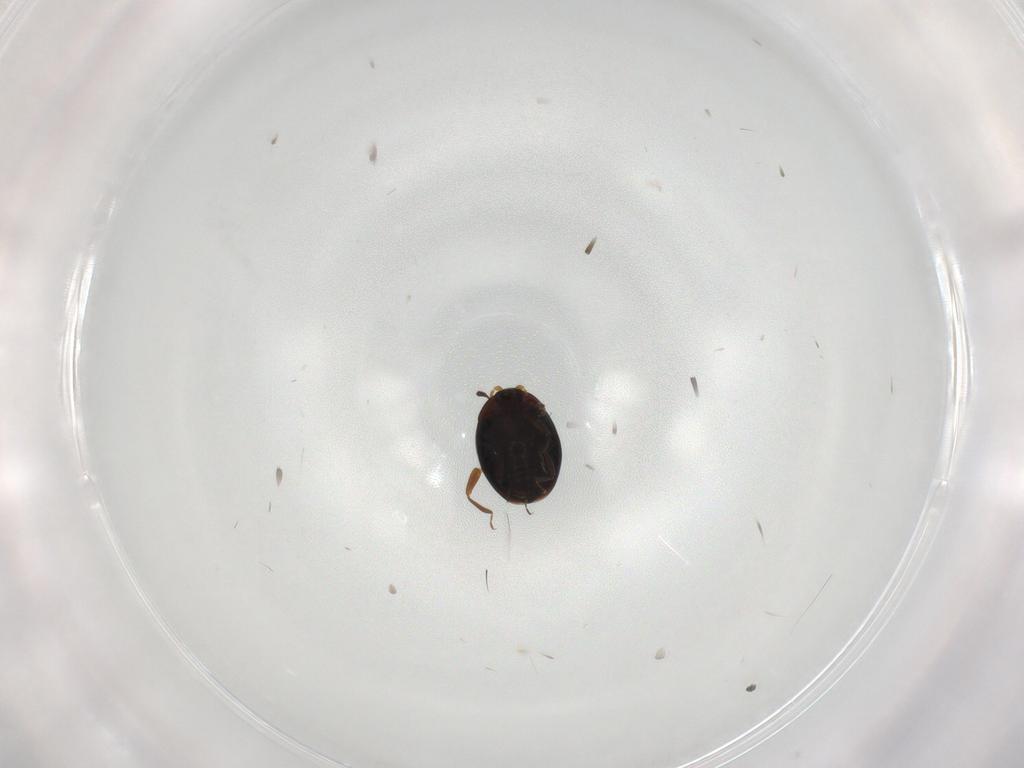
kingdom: Animalia
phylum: Arthropoda
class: Insecta
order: Coleoptera
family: Corylophidae
